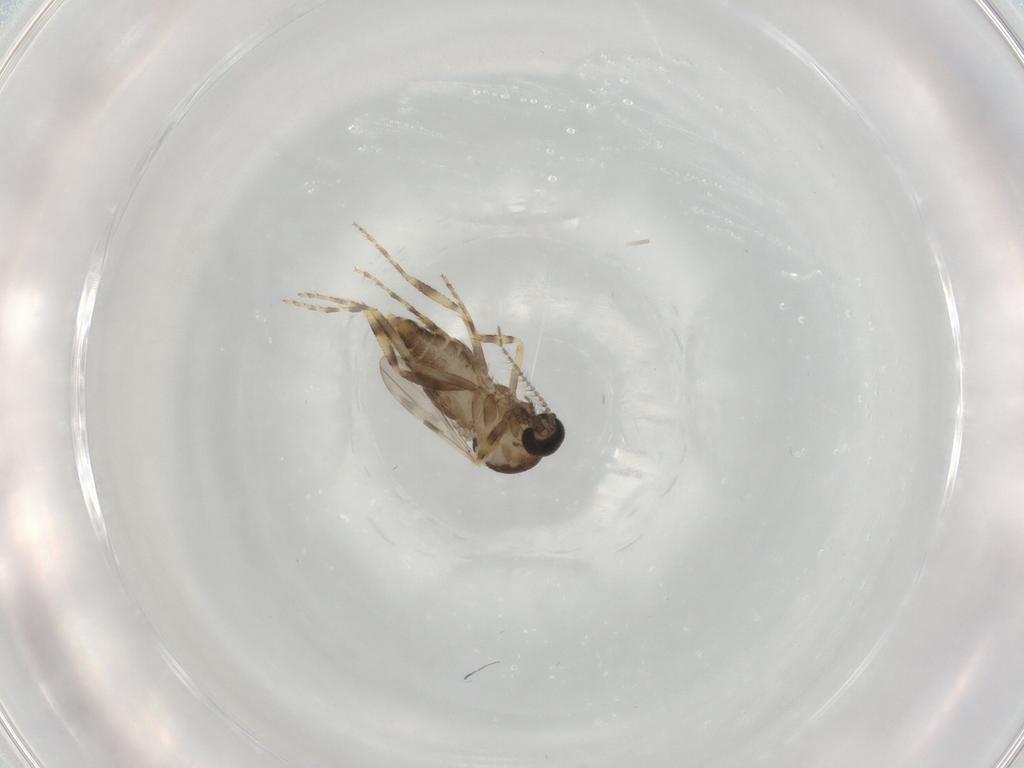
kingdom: Animalia
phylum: Arthropoda
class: Insecta
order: Diptera
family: Ceratopogonidae
